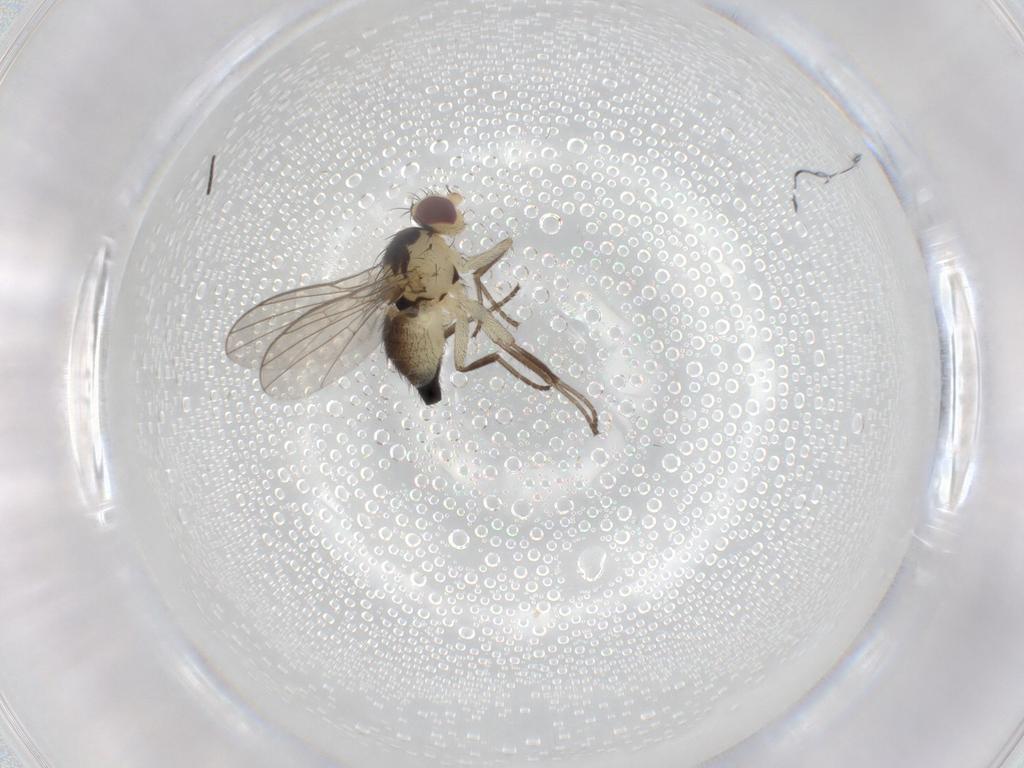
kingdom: Animalia
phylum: Arthropoda
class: Insecta
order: Diptera
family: Agromyzidae
